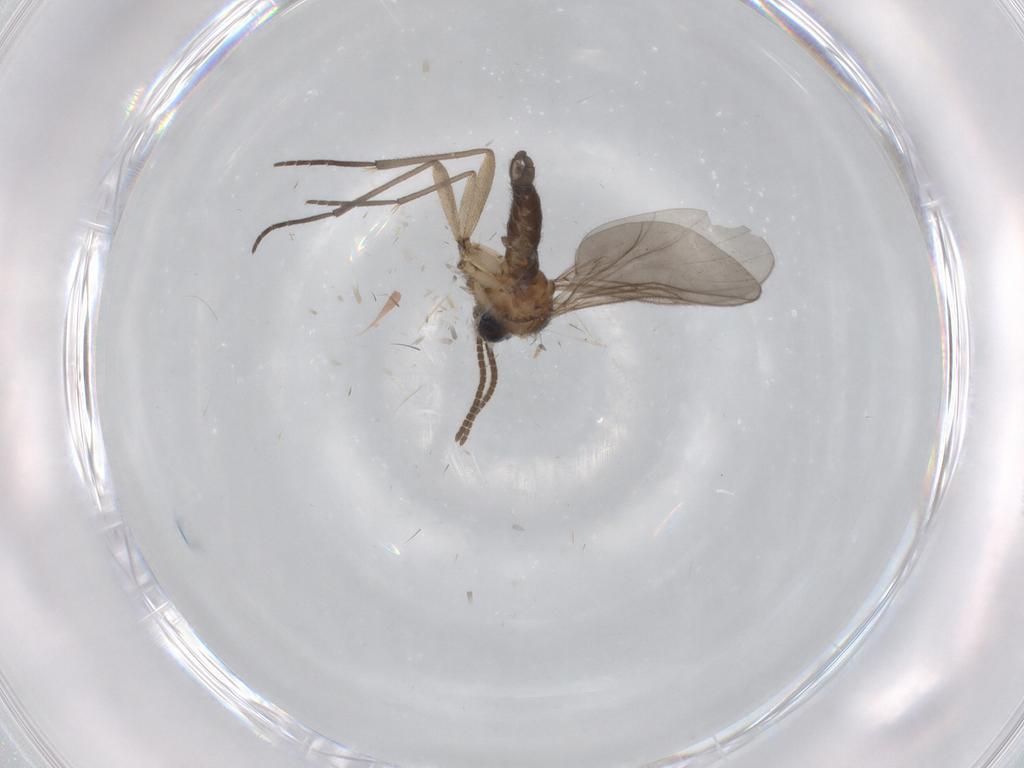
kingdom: Animalia
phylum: Arthropoda
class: Insecta
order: Diptera
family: Sciaridae
